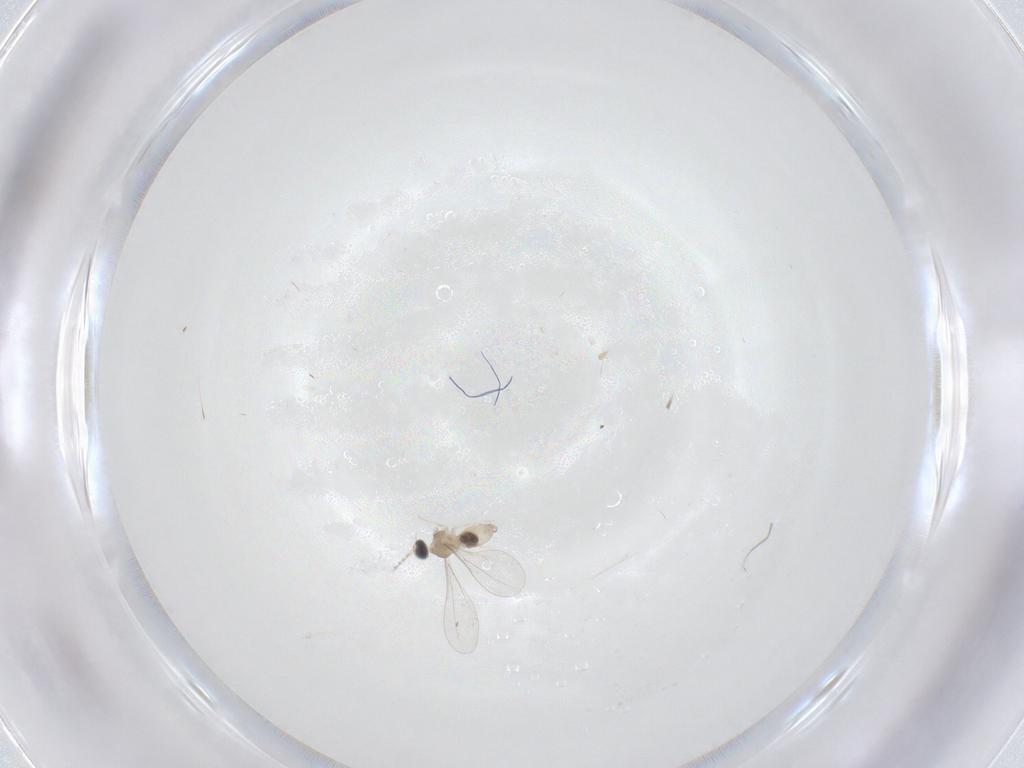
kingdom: Animalia
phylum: Arthropoda
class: Insecta
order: Diptera
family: Cecidomyiidae
